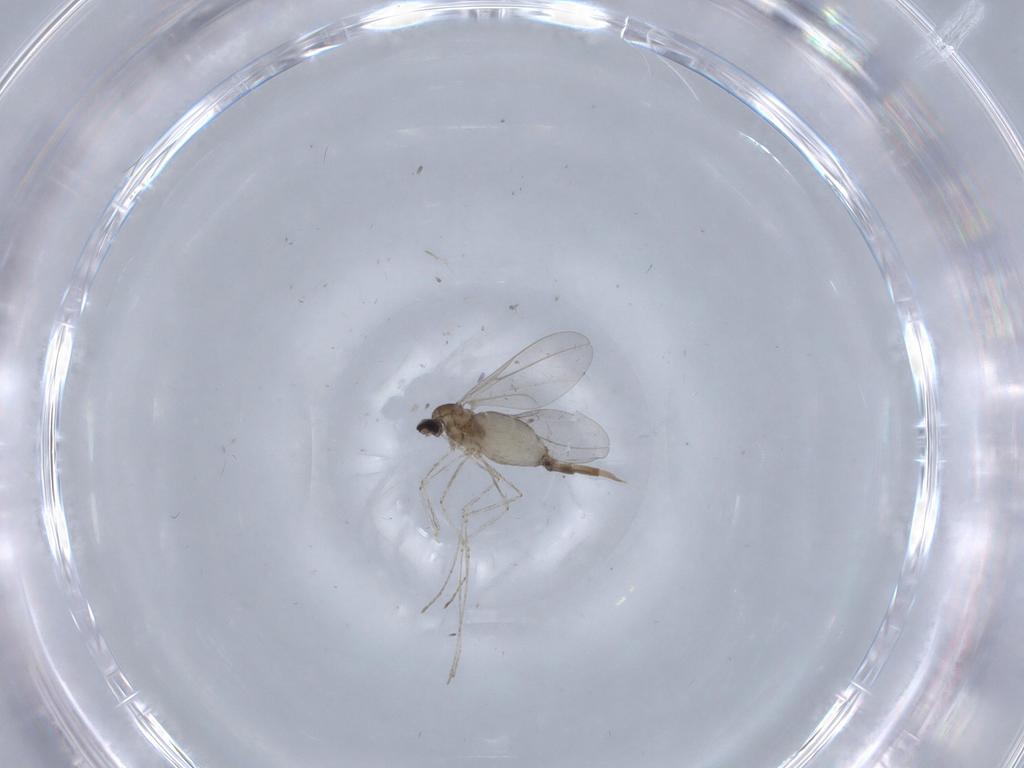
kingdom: Animalia
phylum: Arthropoda
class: Insecta
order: Diptera
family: Cecidomyiidae
